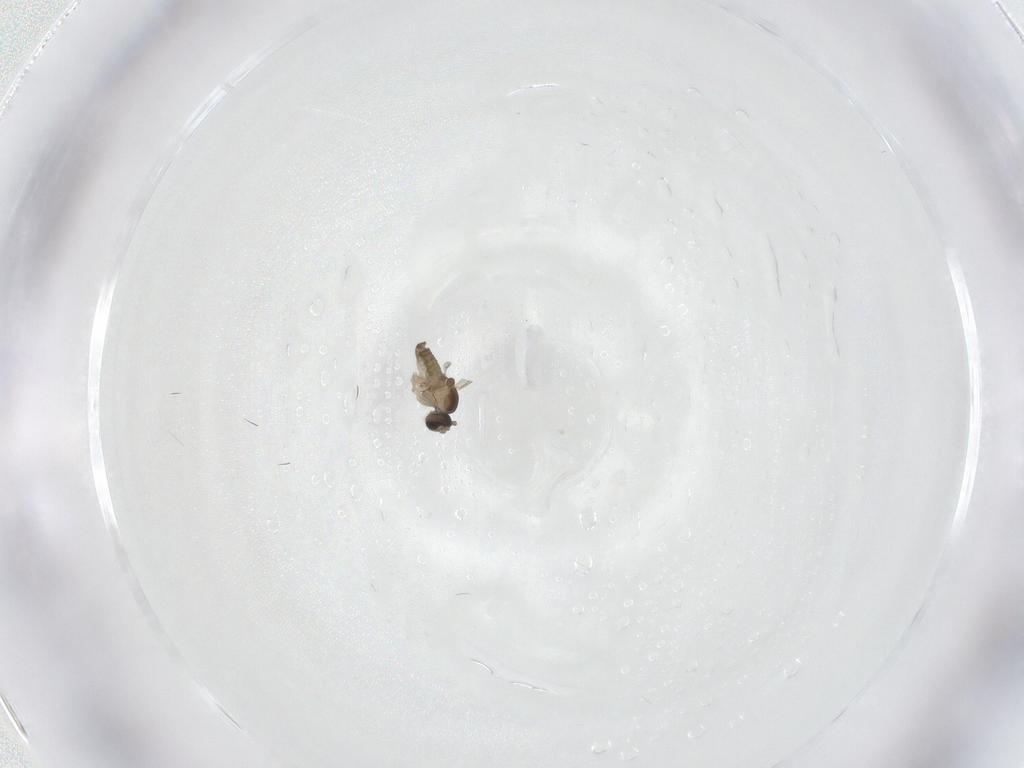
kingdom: Animalia
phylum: Arthropoda
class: Insecta
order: Diptera
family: Cecidomyiidae
